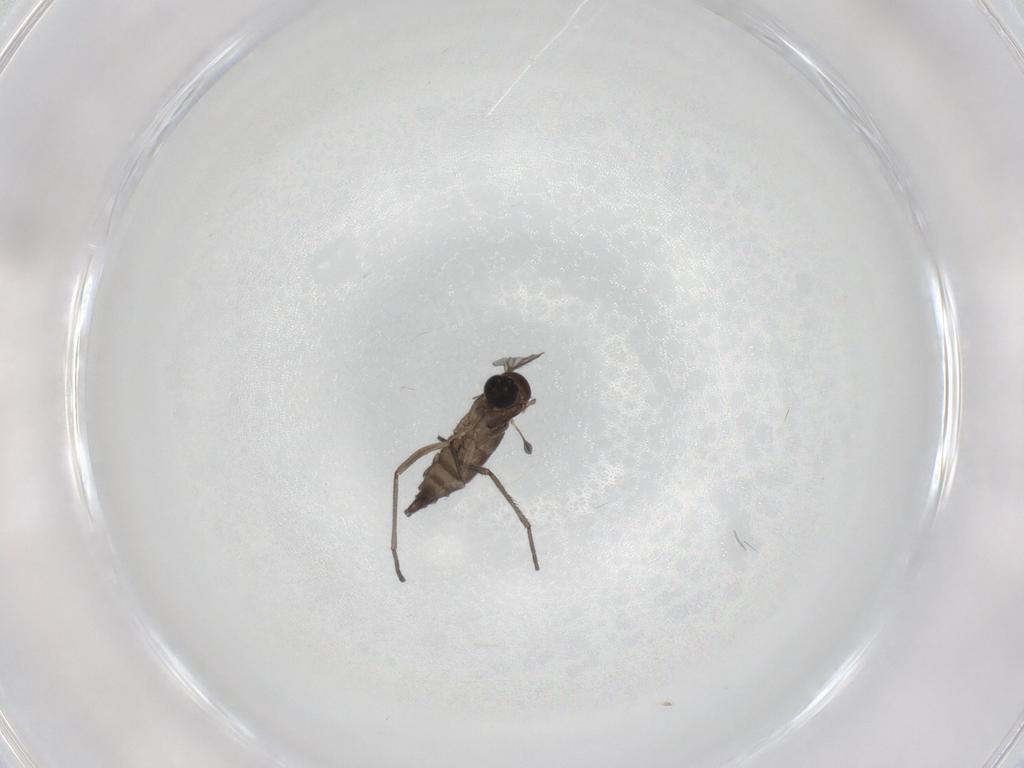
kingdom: Animalia
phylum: Arthropoda
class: Insecta
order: Diptera
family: Sciaridae
